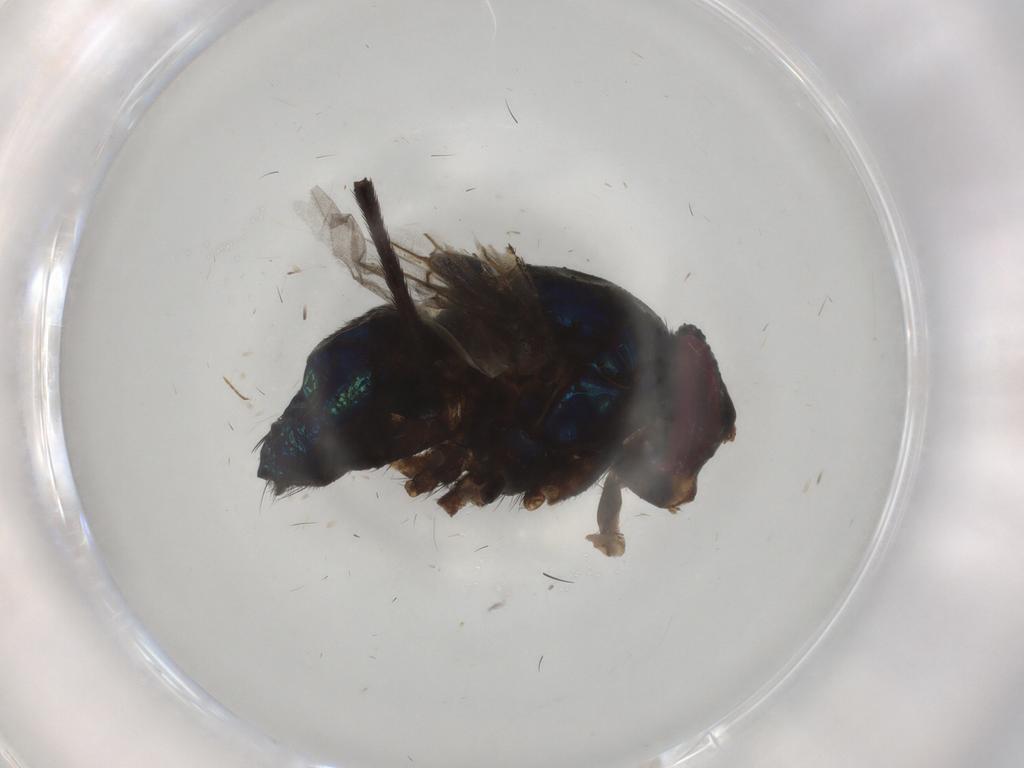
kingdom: Animalia
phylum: Arthropoda
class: Insecta
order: Diptera
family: Calliphoridae
